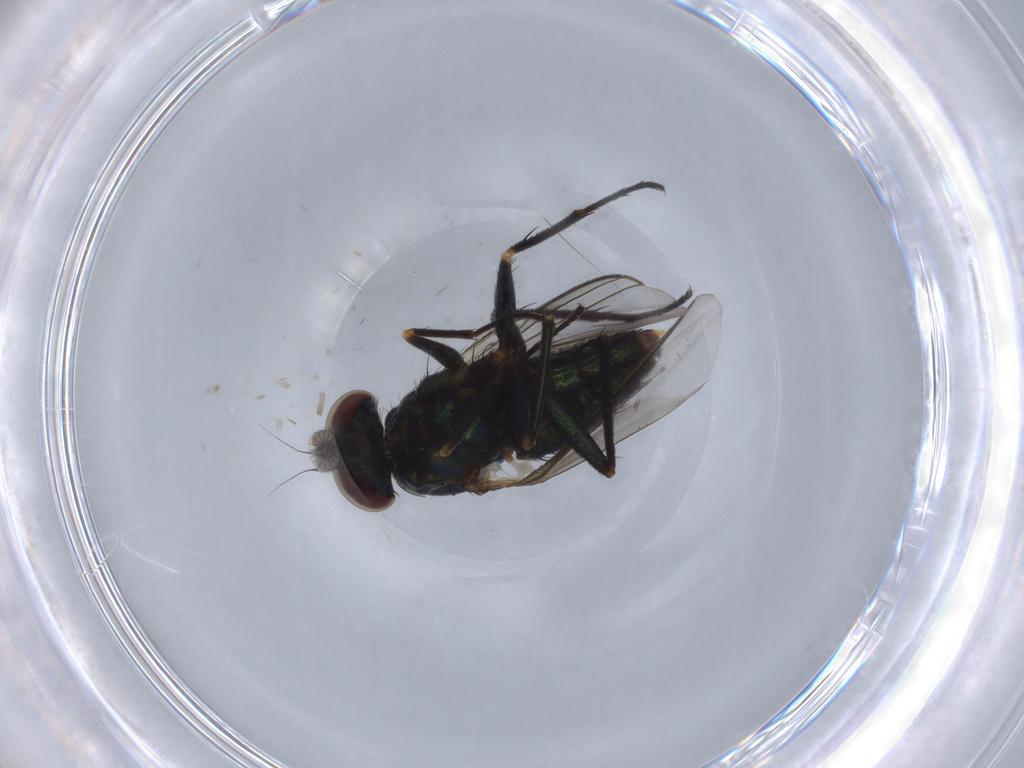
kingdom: Animalia
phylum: Arthropoda
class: Insecta
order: Diptera
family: Dolichopodidae
